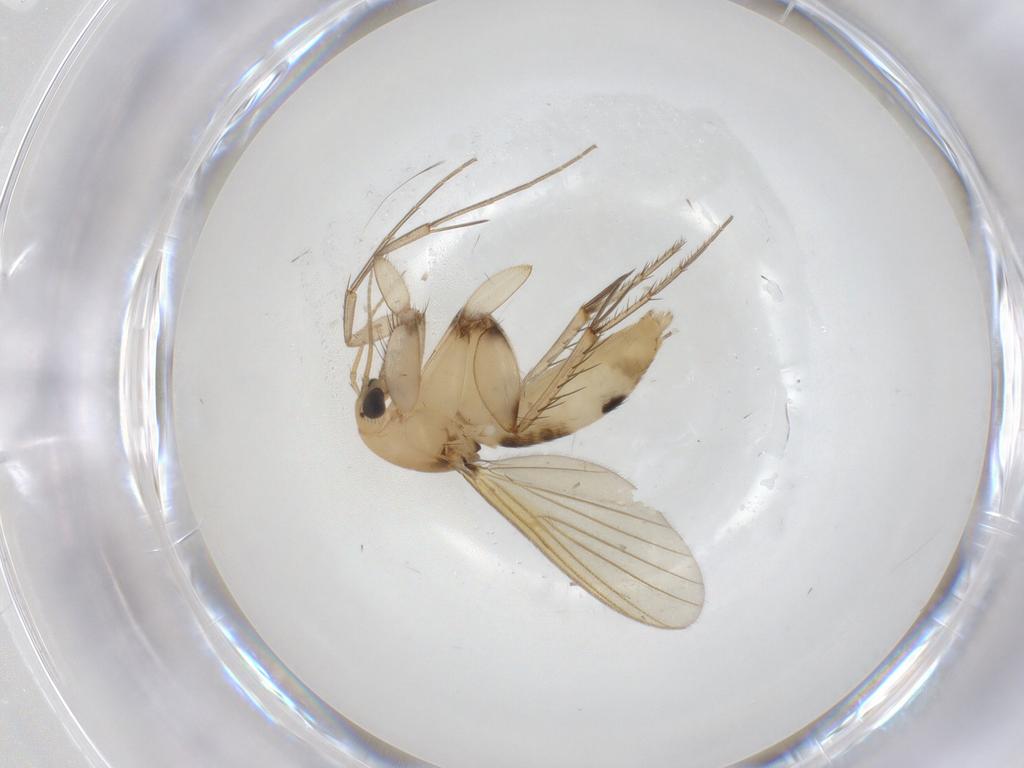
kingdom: Animalia
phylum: Arthropoda
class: Insecta
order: Diptera
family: Mycetophilidae
